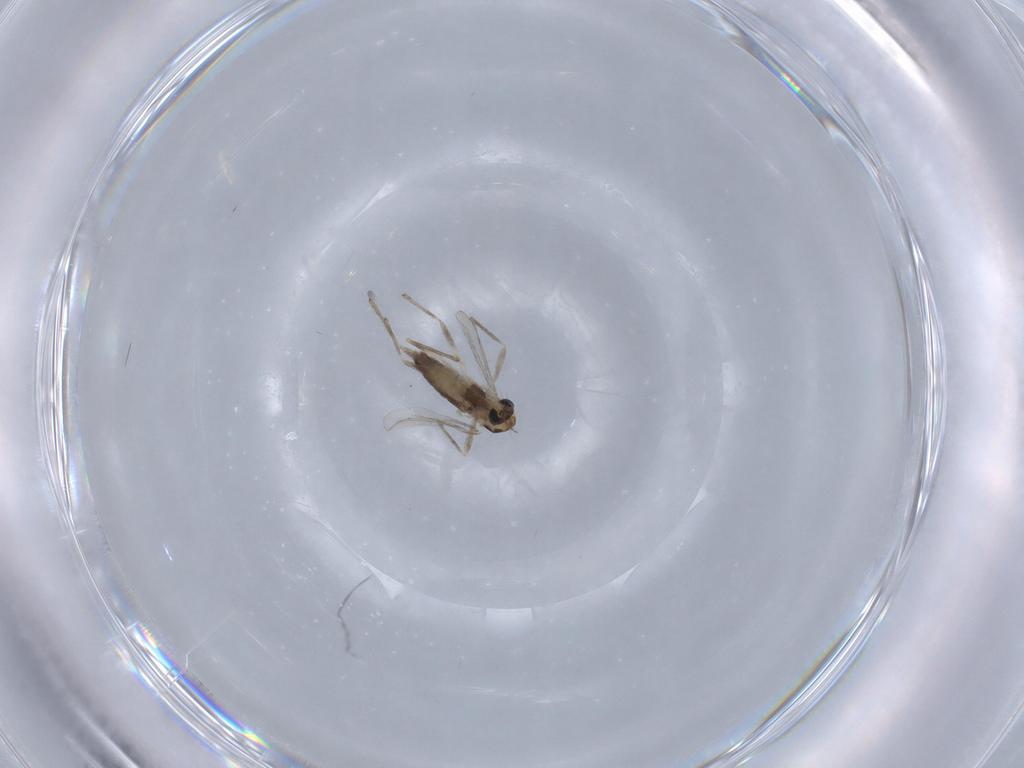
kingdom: Animalia
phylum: Arthropoda
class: Insecta
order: Diptera
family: Chironomidae
